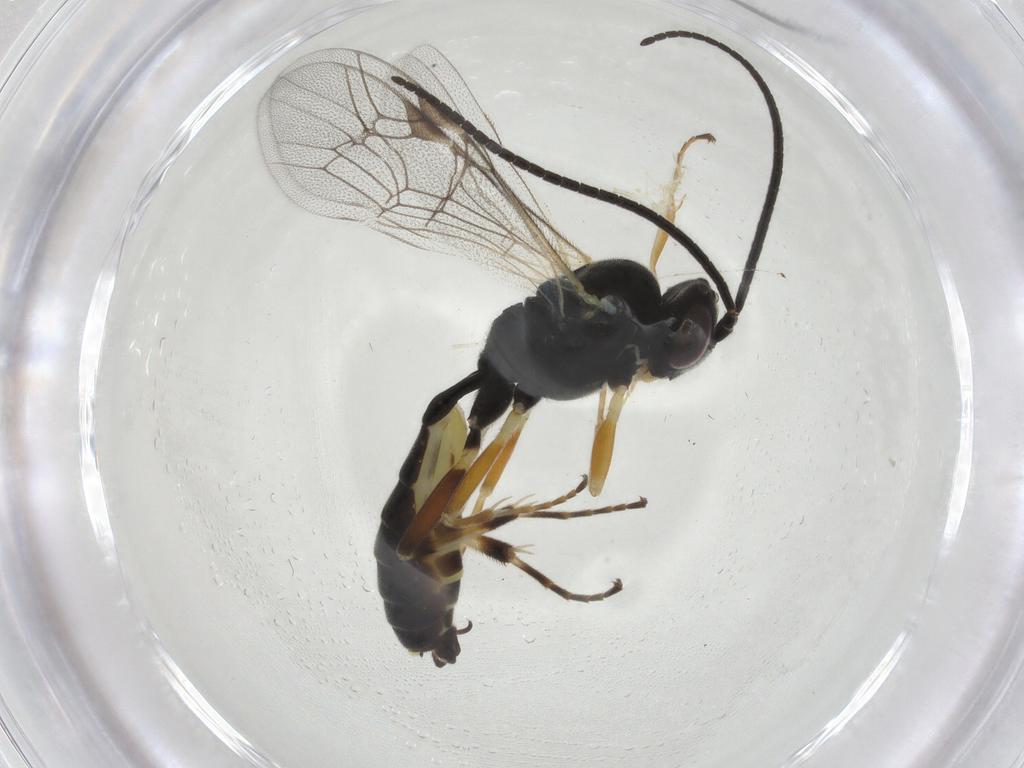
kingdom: Animalia
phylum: Arthropoda
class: Insecta
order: Hymenoptera
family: Ichneumonidae
